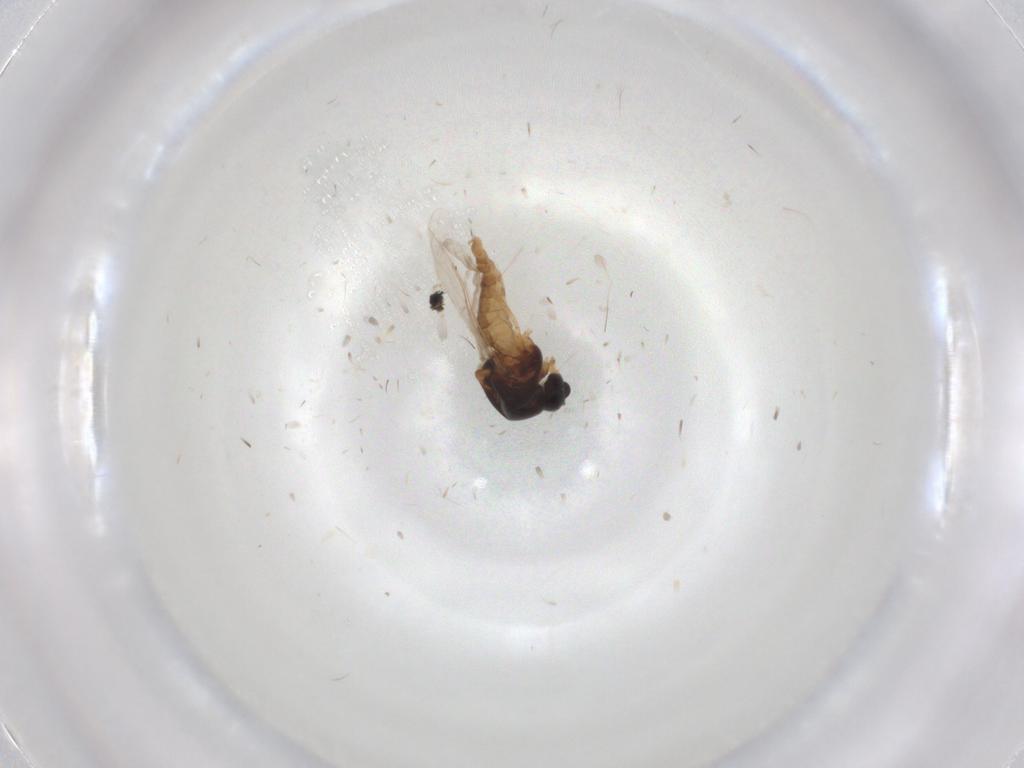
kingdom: Animalia
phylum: Arthropoda
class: Insecta
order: Diptera
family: Ceratopogonidae
